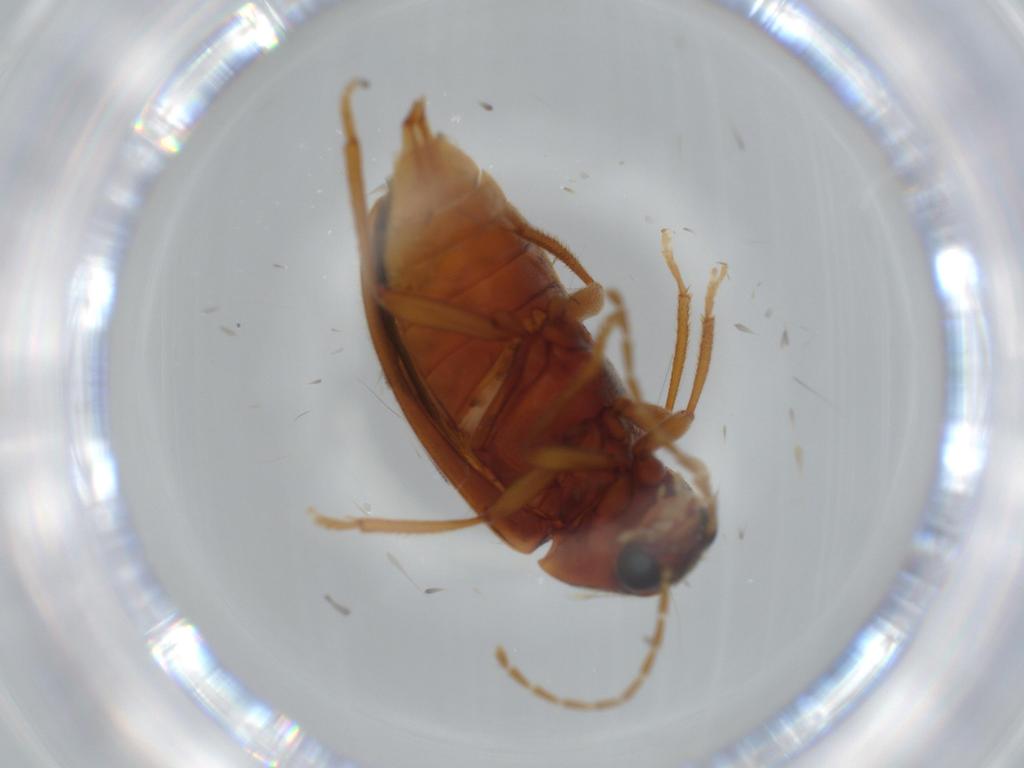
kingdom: Animalia
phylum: Arthropoda
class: Insecta
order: Coleoptera
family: Ptilodactylidae
